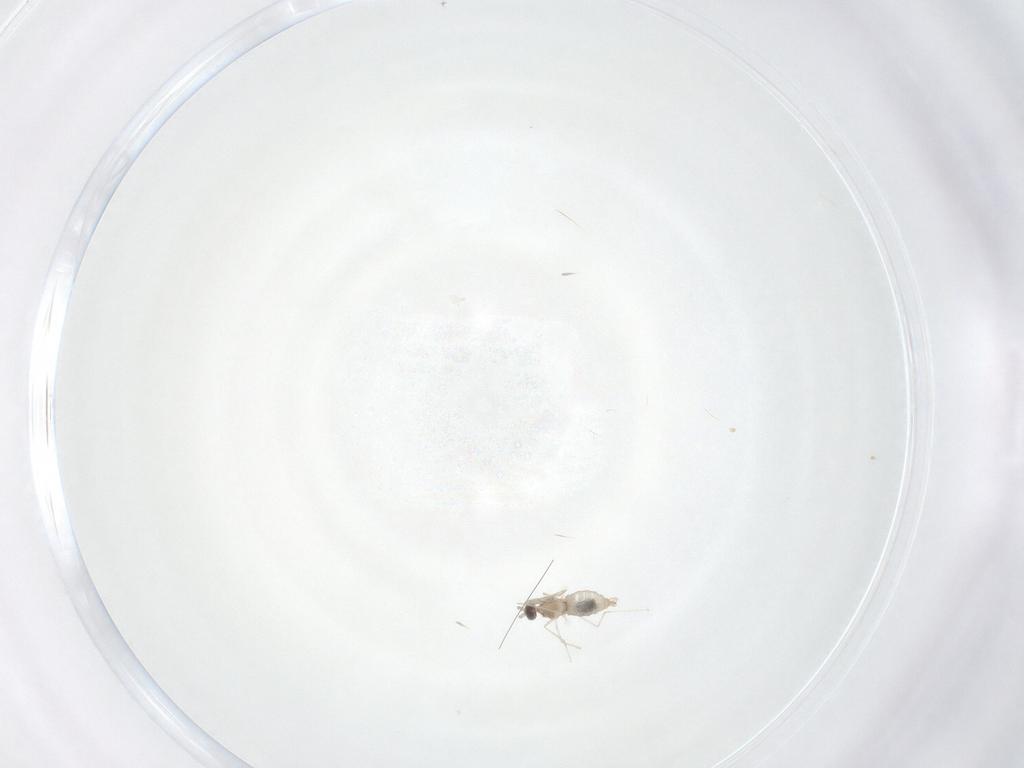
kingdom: Animalia
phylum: Arthropoda
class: Insecta
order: Diptera
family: Cecidomyiidae
